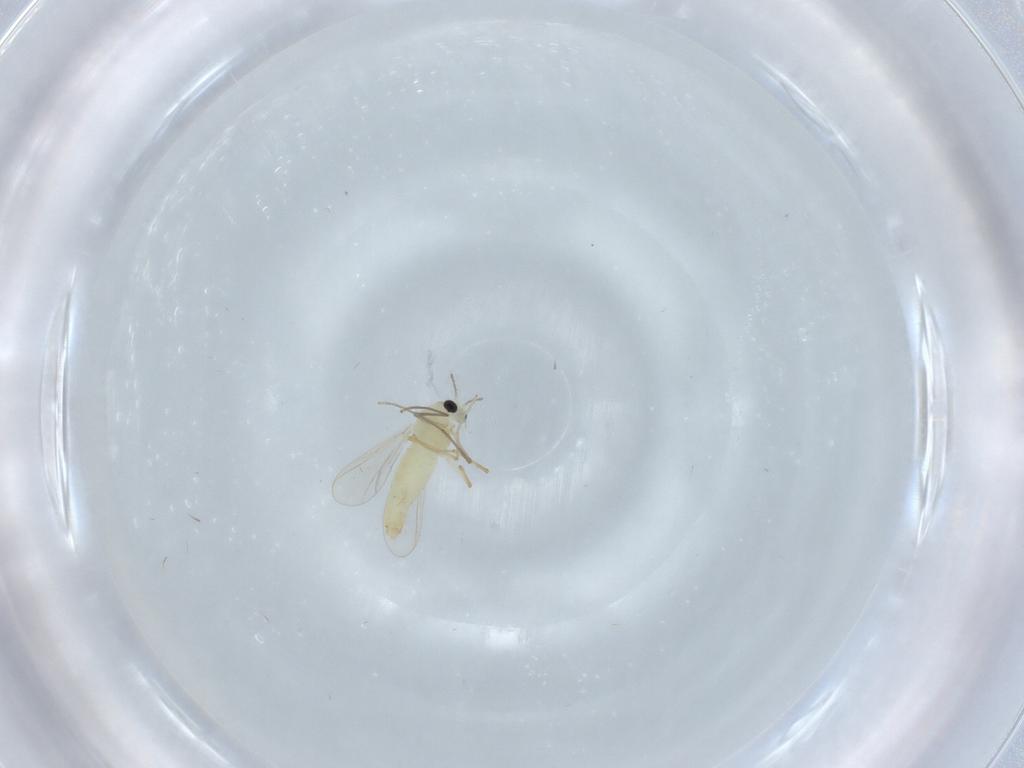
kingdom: Animalia
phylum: Arthropoda
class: Insecta
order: Diptera
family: Chironomidae
